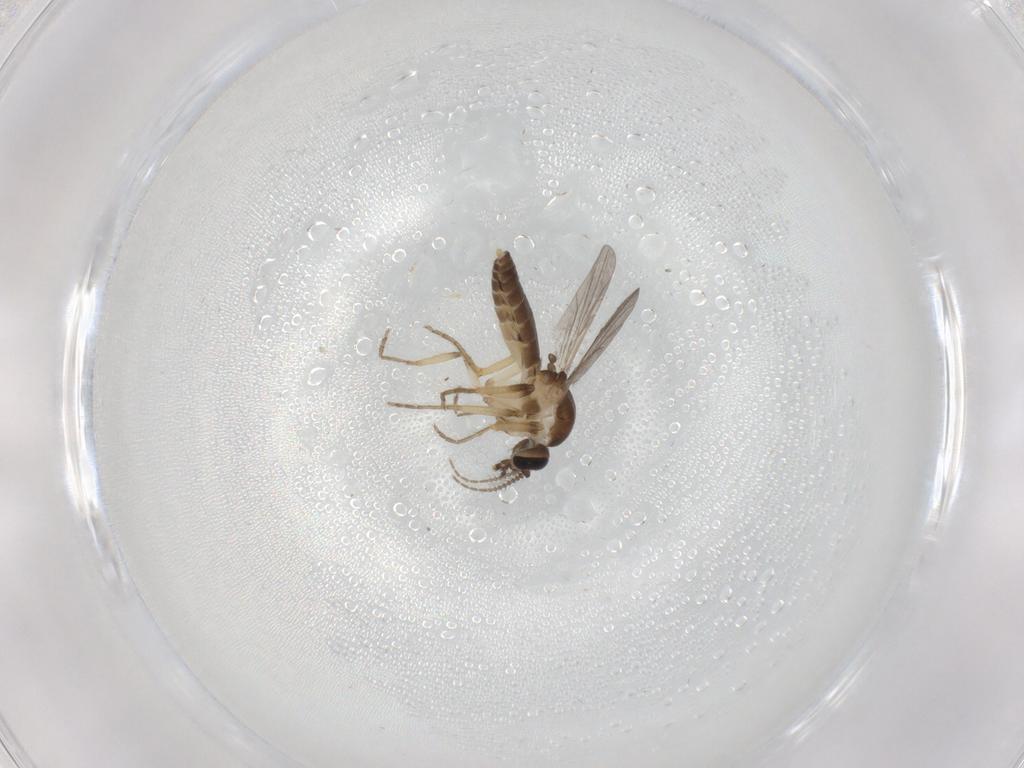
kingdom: Animalia
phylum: Arthropoda
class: Insecta
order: Diptera
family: Ceratopogonidae
